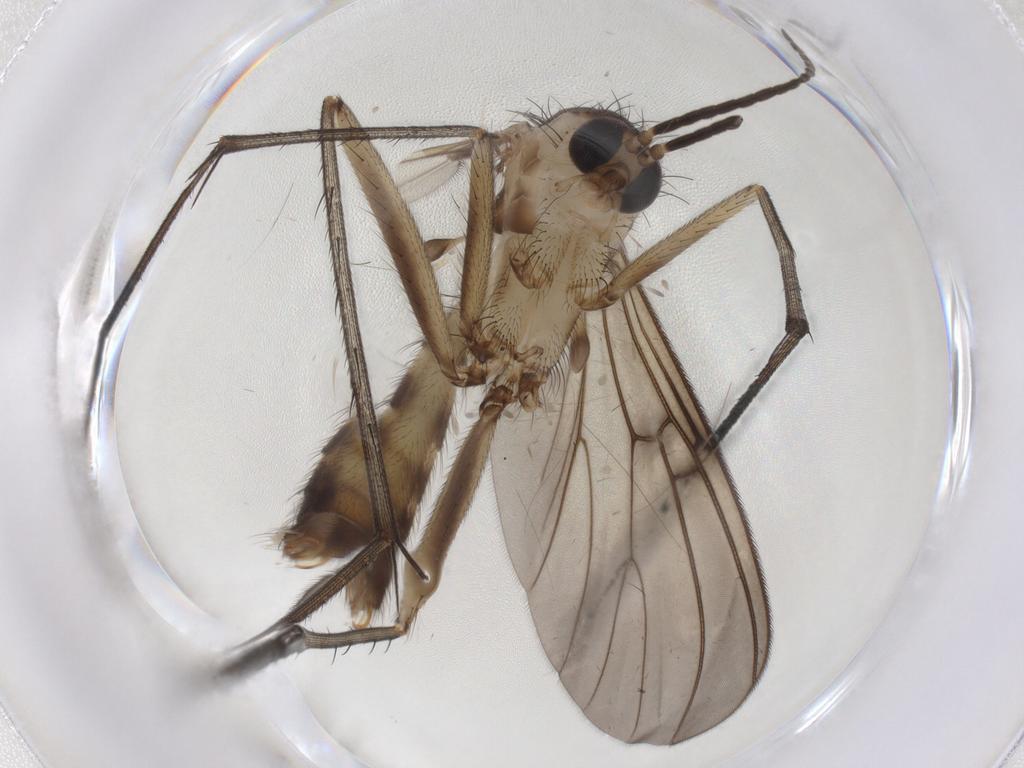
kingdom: Animalia
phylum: Arthropoda
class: Insecta
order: Diptera
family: Mycetophilidae
